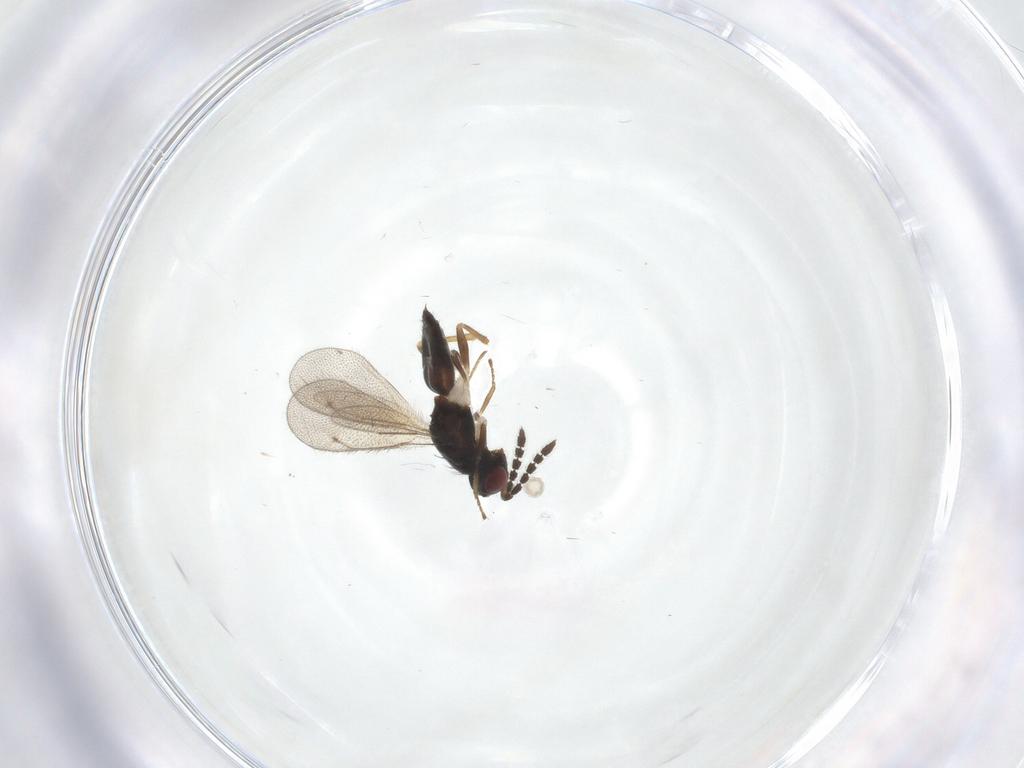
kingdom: Animalia
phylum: Arthropoda
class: Insecta
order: Hymenoptera
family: Eulophidae
